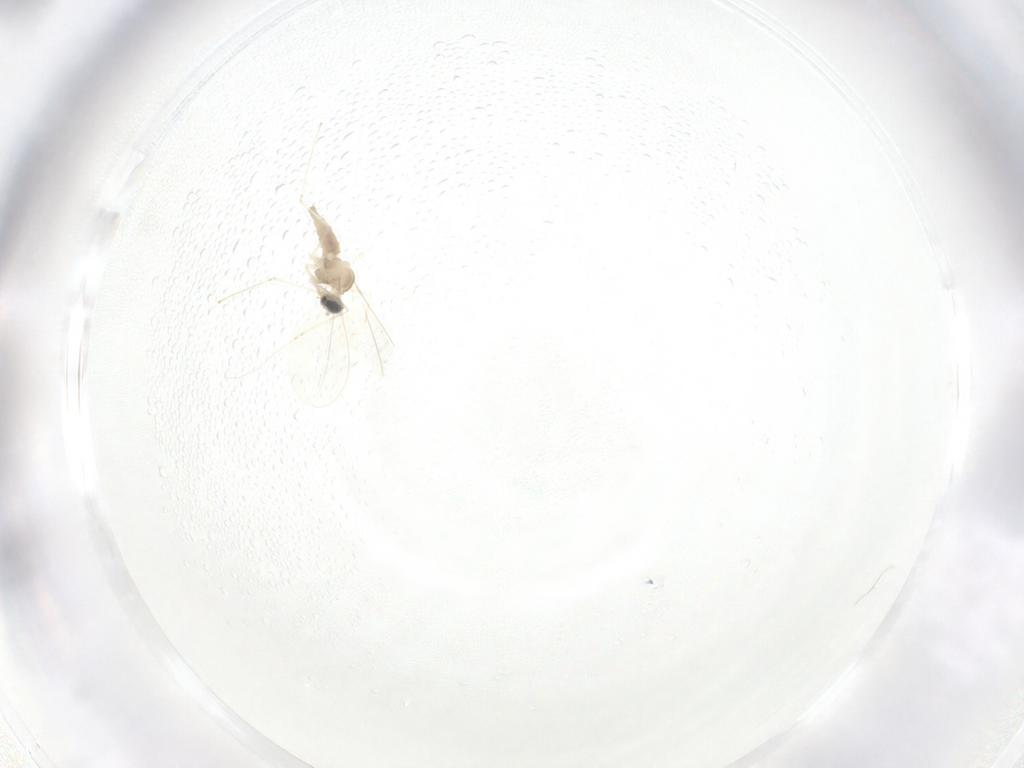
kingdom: Animalia
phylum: Arthropoda
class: Insecta
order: Diptera
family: Cecidomyiidae
